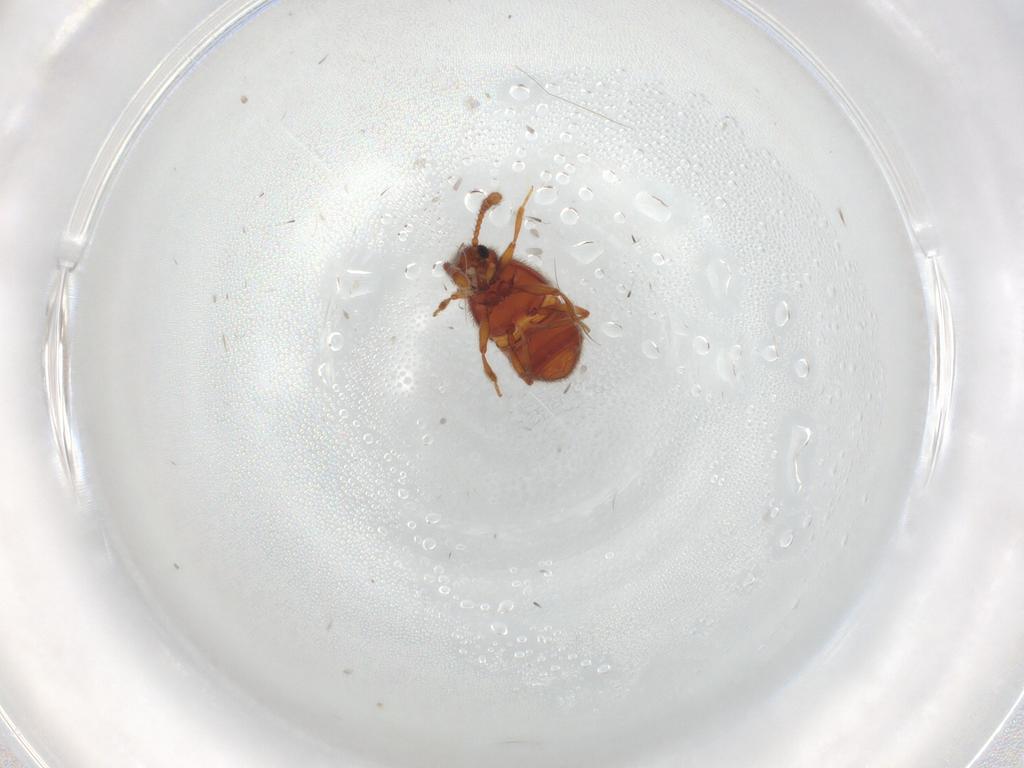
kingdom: Animalia
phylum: Arthropoda
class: Insecta
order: Coleoptera
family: Staphylinidae
